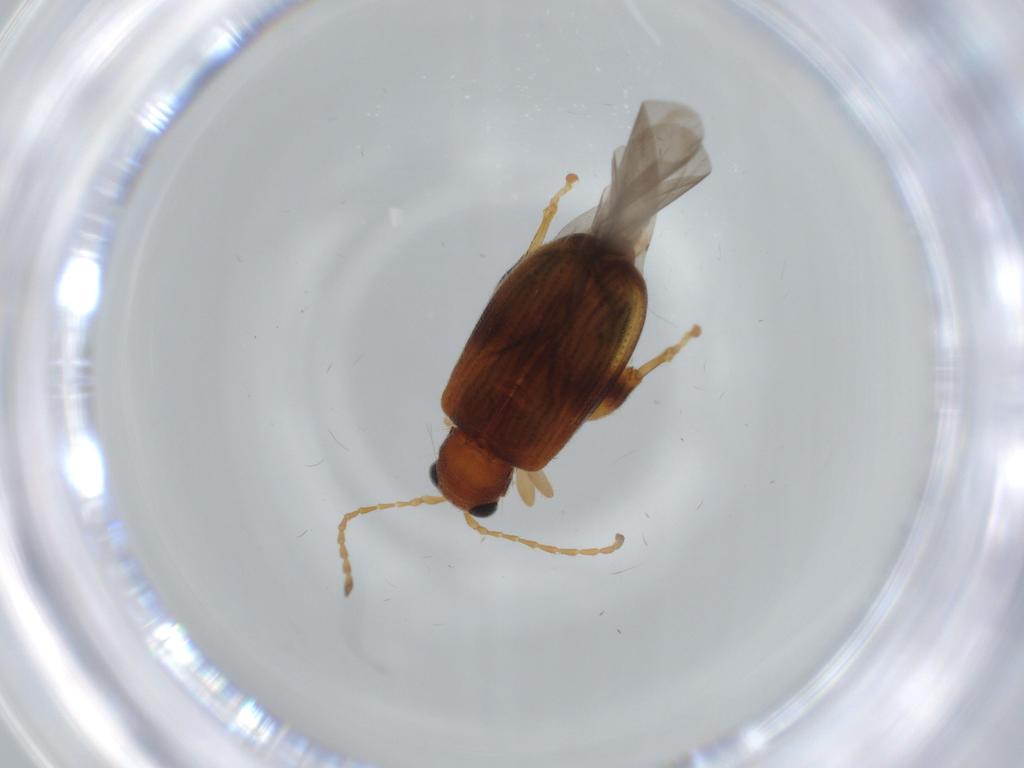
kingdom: Animalia
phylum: Arthropoda
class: Insecta
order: Coleoptera
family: Chrysomelidae
